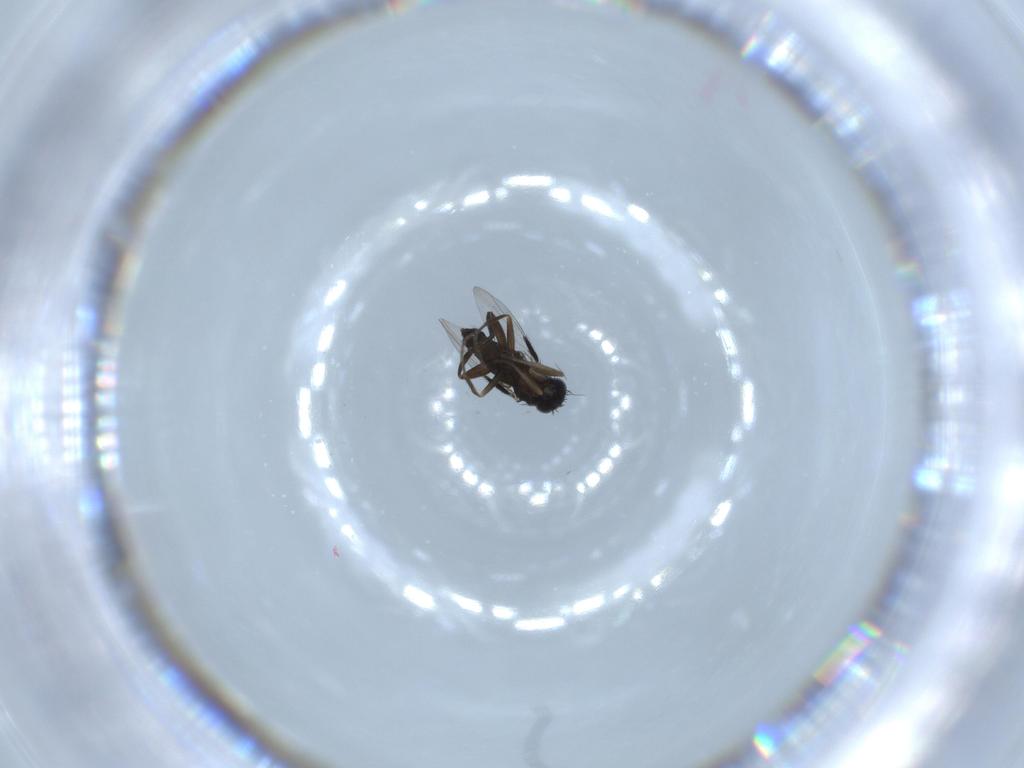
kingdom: Animalia
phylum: Arthropoda
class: Insecta
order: Diptera
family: Phoridae
